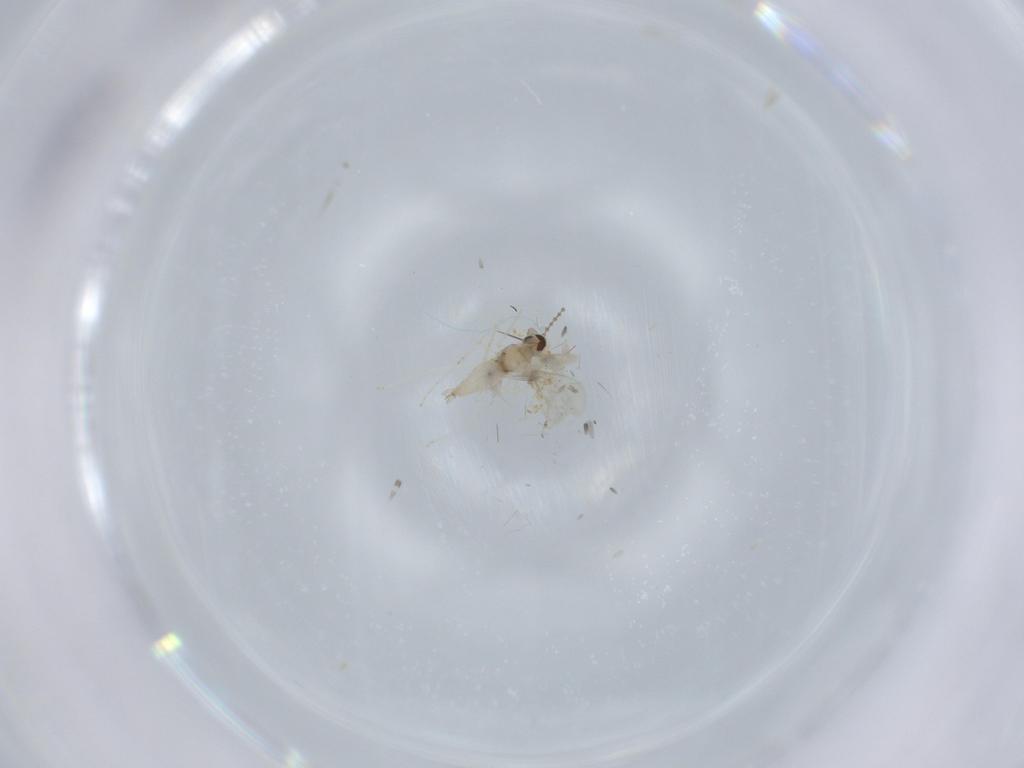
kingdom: Animalia
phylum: Arthropoda
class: Insecta
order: Diptera
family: Cecidomyiidae
